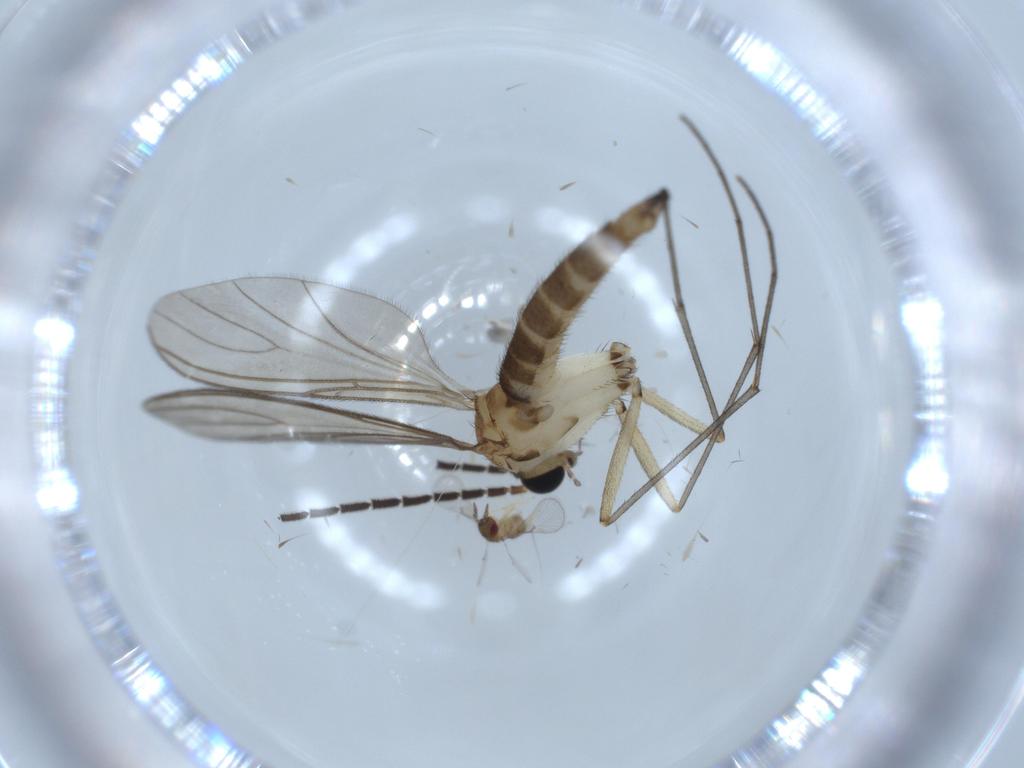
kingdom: Animalia
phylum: Arthropoda
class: Insecta
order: Diptera
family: Sciaridae
